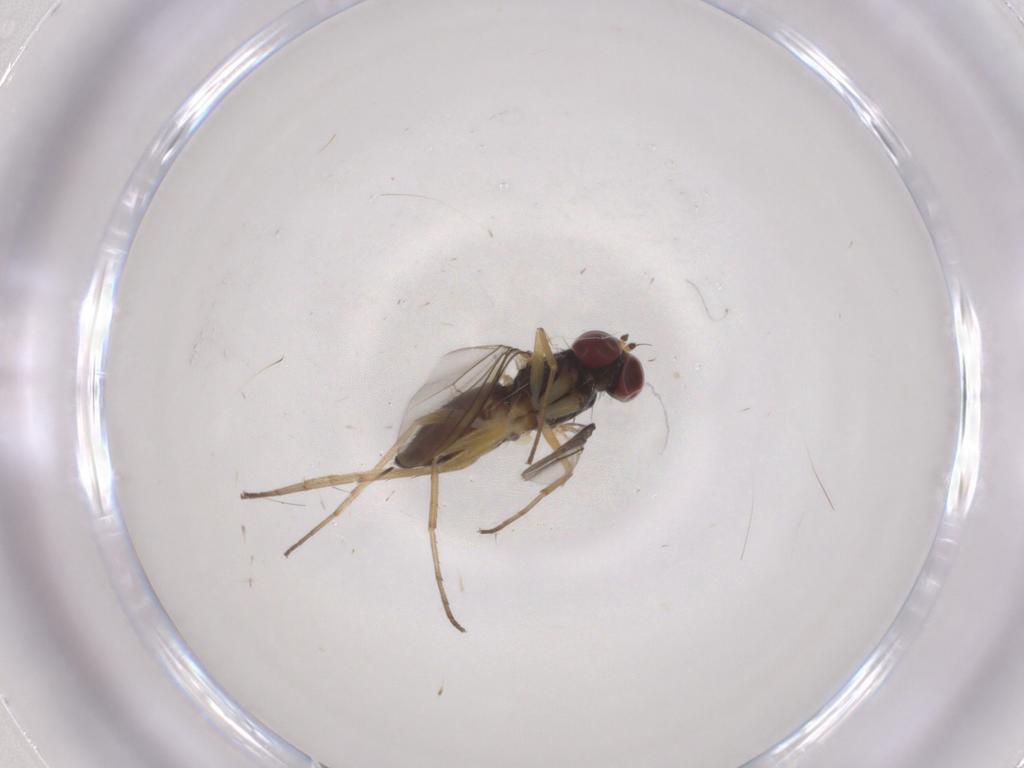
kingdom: Animalia
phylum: Arthropoda
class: Insecta
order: Diptera
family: Dolichopodidae
